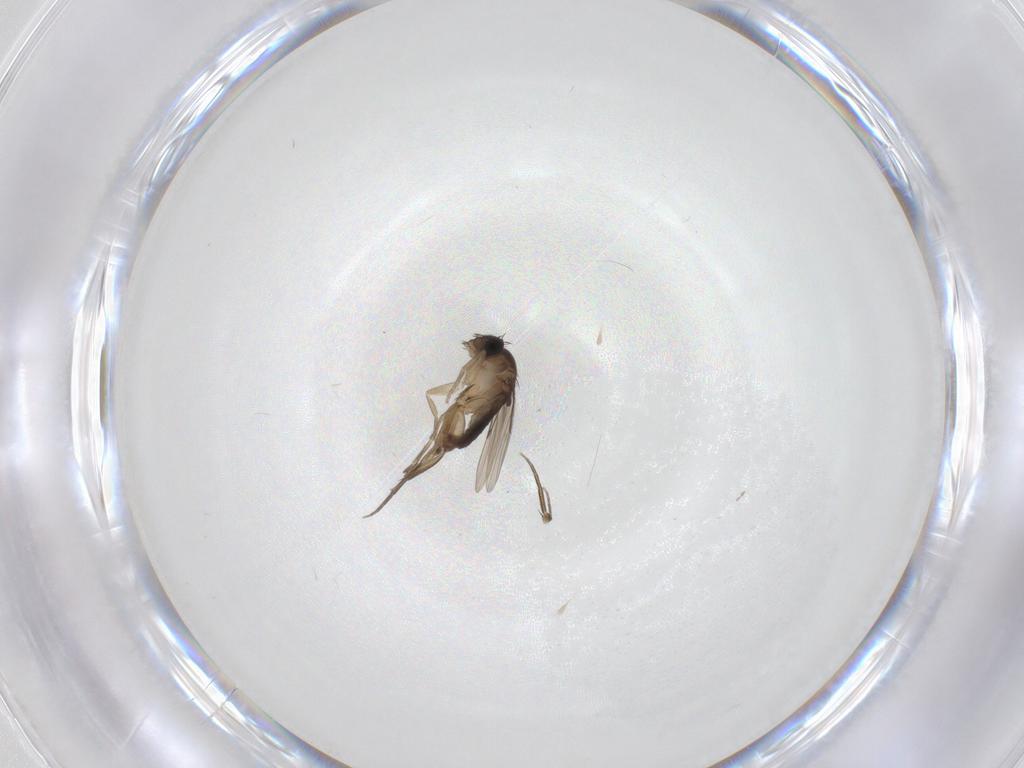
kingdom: Animalia
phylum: Arthropoda
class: Insecta
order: Diptera
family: Phoridae
